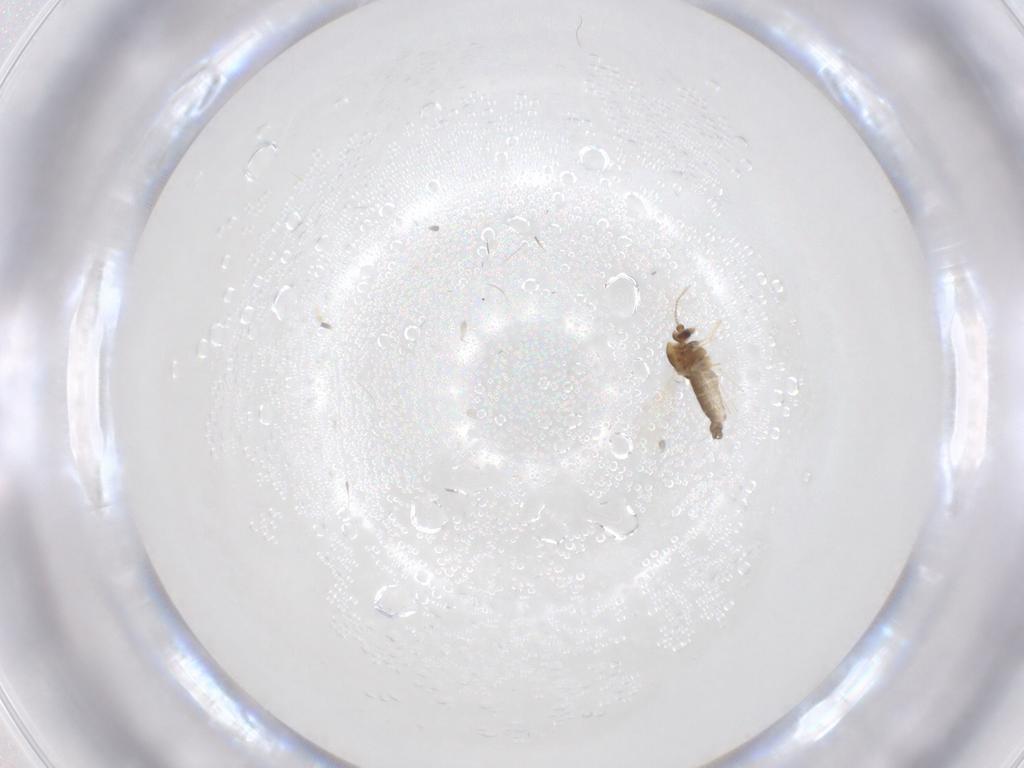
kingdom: Animalia
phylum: Arthropoda
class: Insecta
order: Diptera
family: Chironomidae
